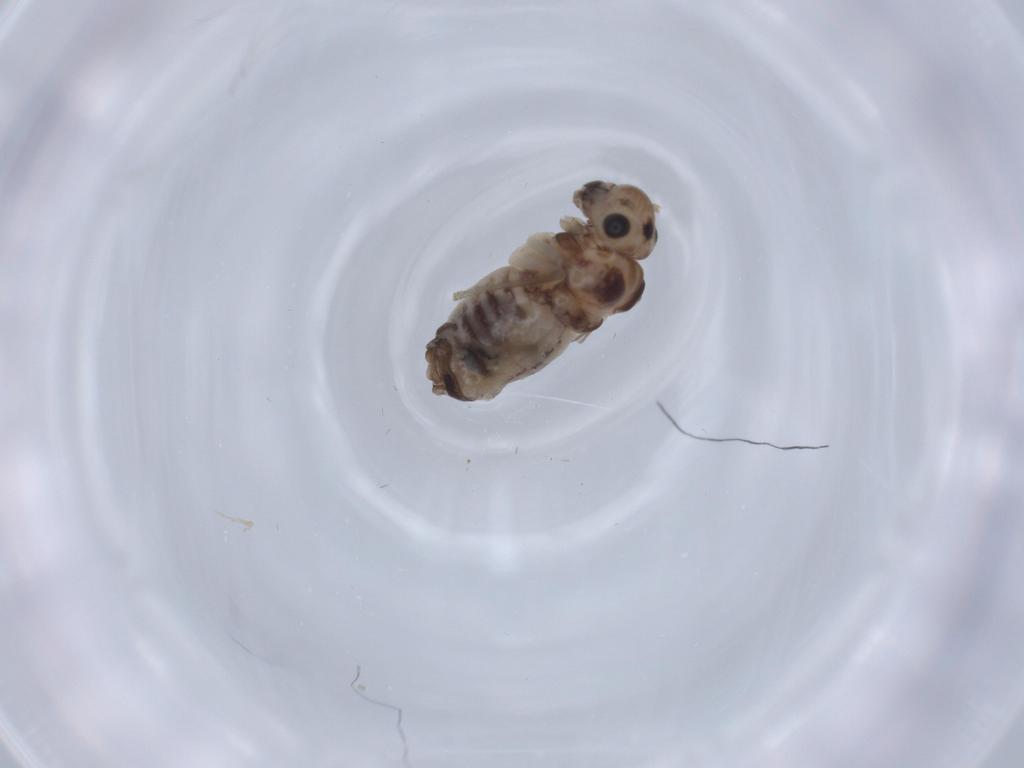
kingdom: Animalia
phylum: Arthropoda
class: Insecta
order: Psocodea
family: Peripsocidae
